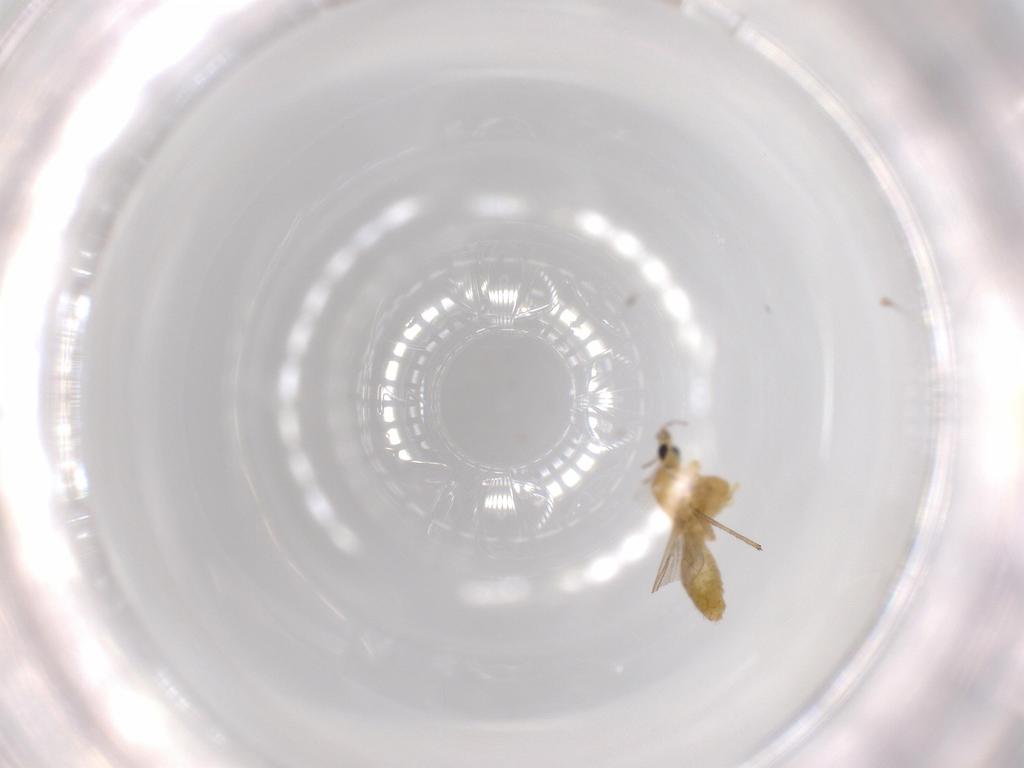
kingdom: Animalia
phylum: Arthropoda
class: Insecta
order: Diptera
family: Chironomidae
